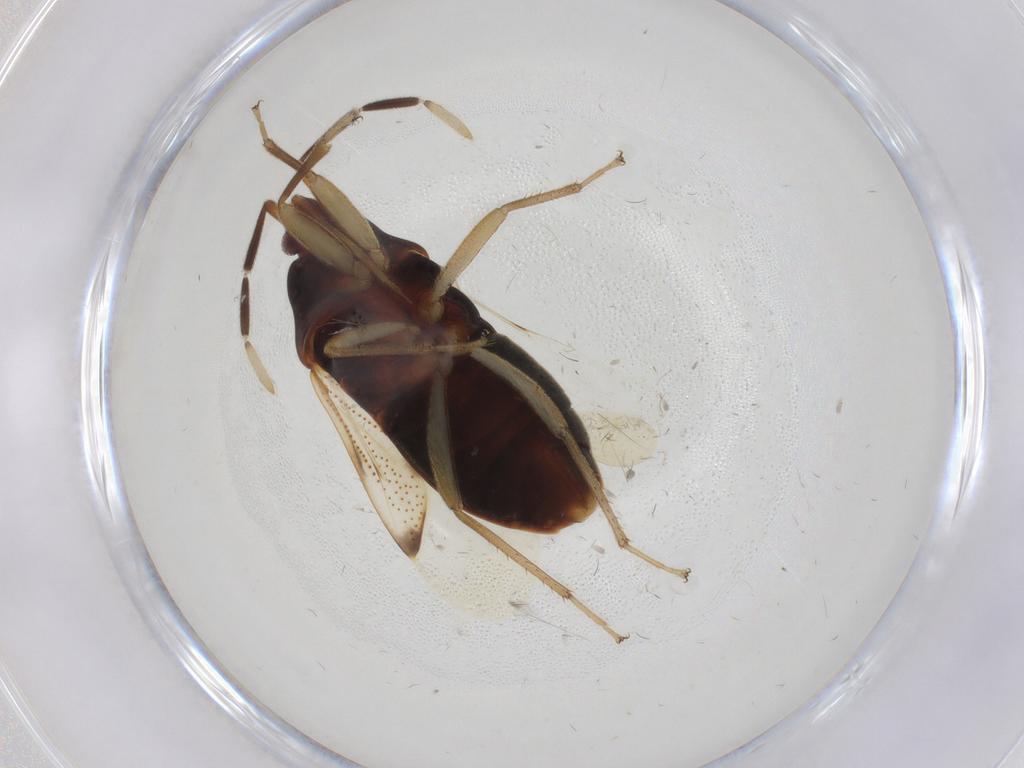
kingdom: Animalia
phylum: Arthropoda
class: Insecta
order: Hemiptera
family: Rhyparochromidae
